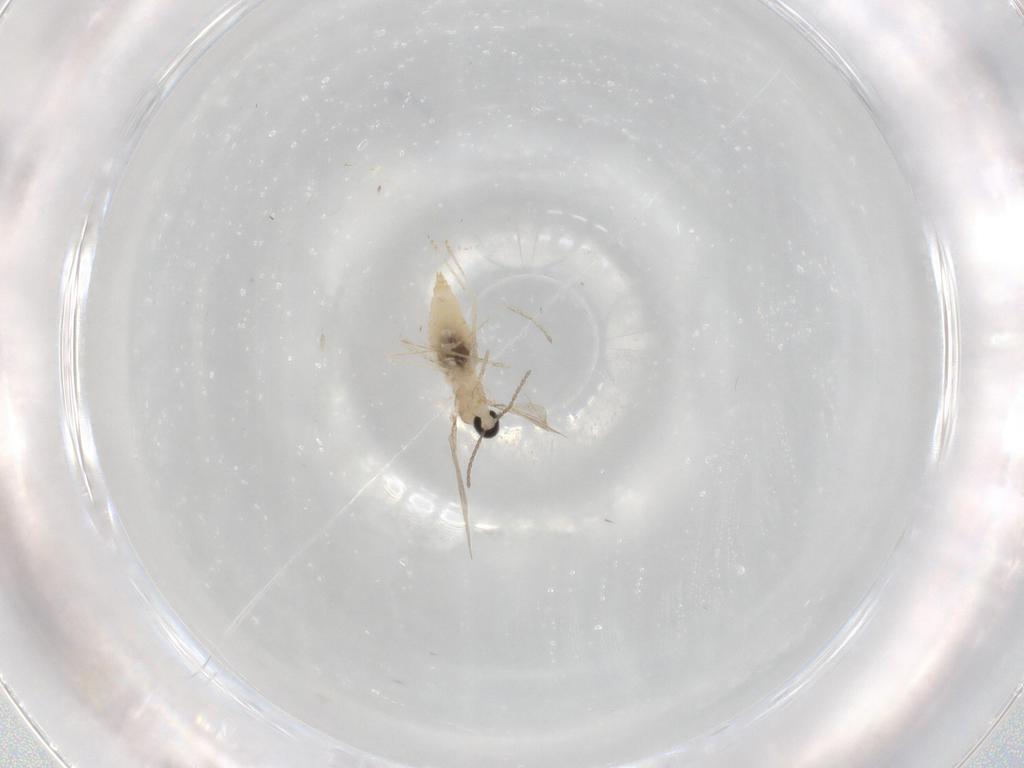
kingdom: Animalia
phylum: Arthropoda
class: Insecta
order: Diptera
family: Cecidomyiidae
